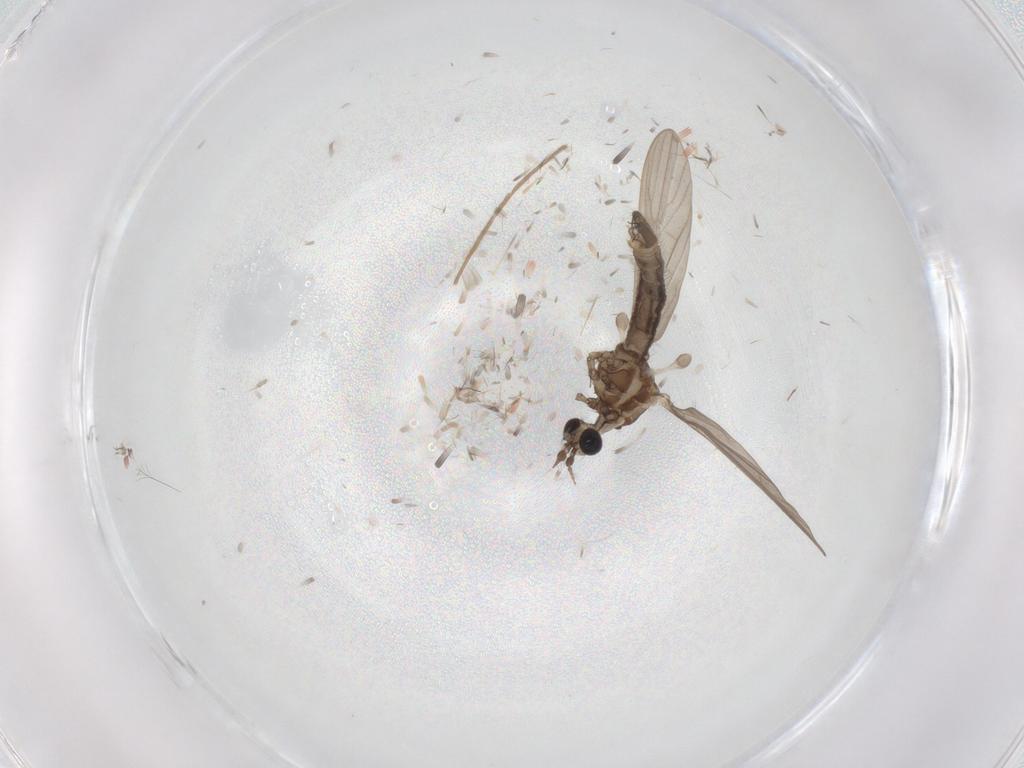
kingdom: Animalia
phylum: Arthropoda
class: Insecta
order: Diptera
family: Limoniidae
